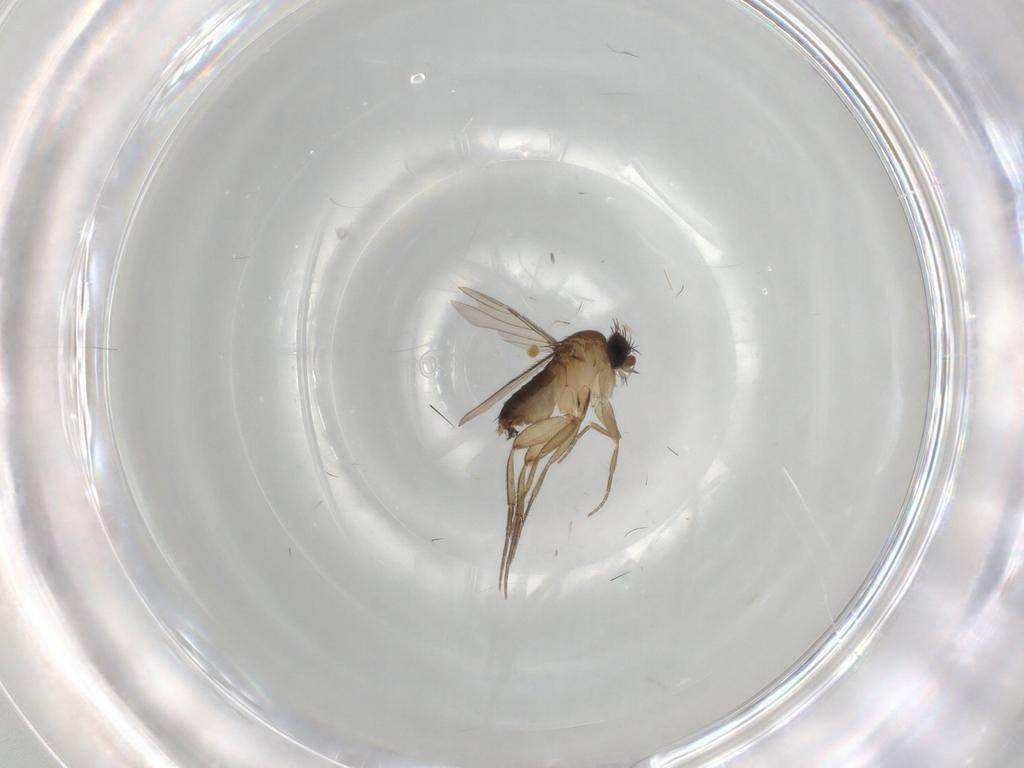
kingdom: Animalia
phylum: Arthropoda
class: Insecta
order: Diptera
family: Phoridae
